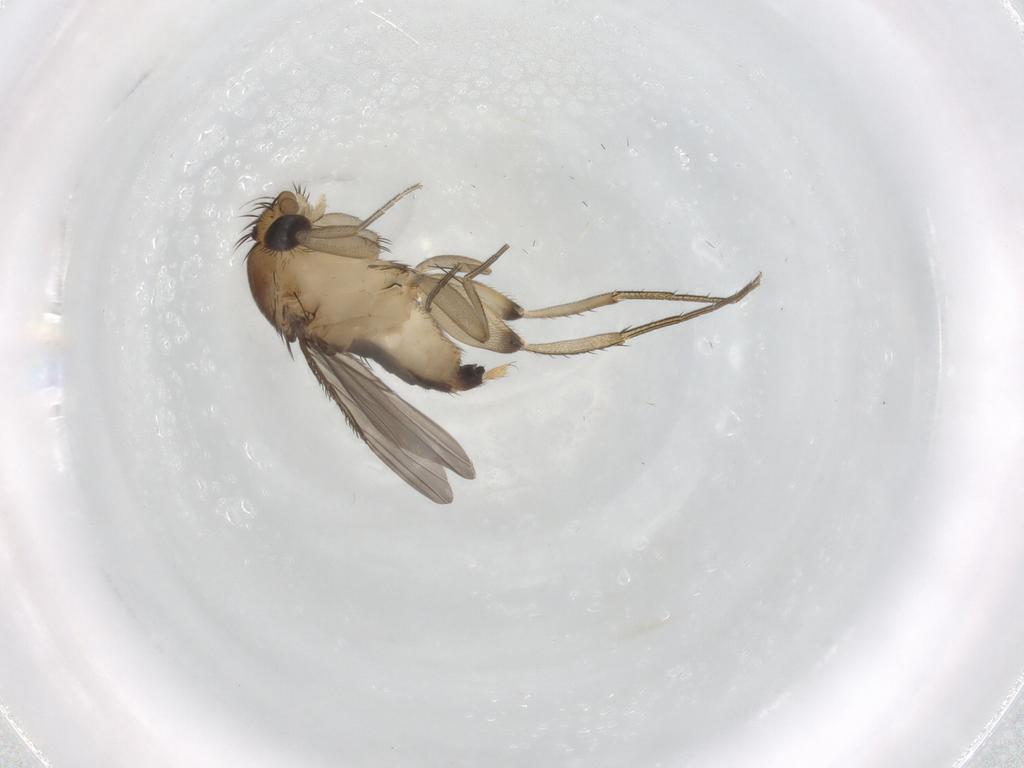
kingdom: Animalia
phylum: Arthropoda
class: Insecta
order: Diptera
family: Phoridae
